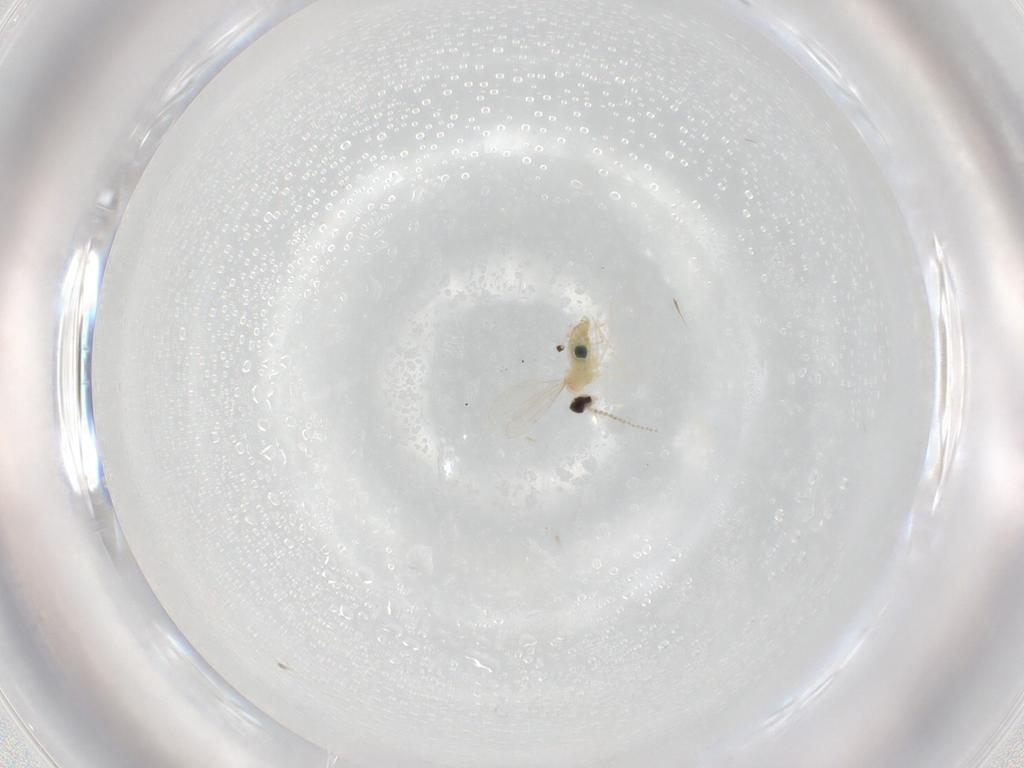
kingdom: Animalia
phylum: Arthropoda
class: Insecta
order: Diptera
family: Cecidomyiidae
